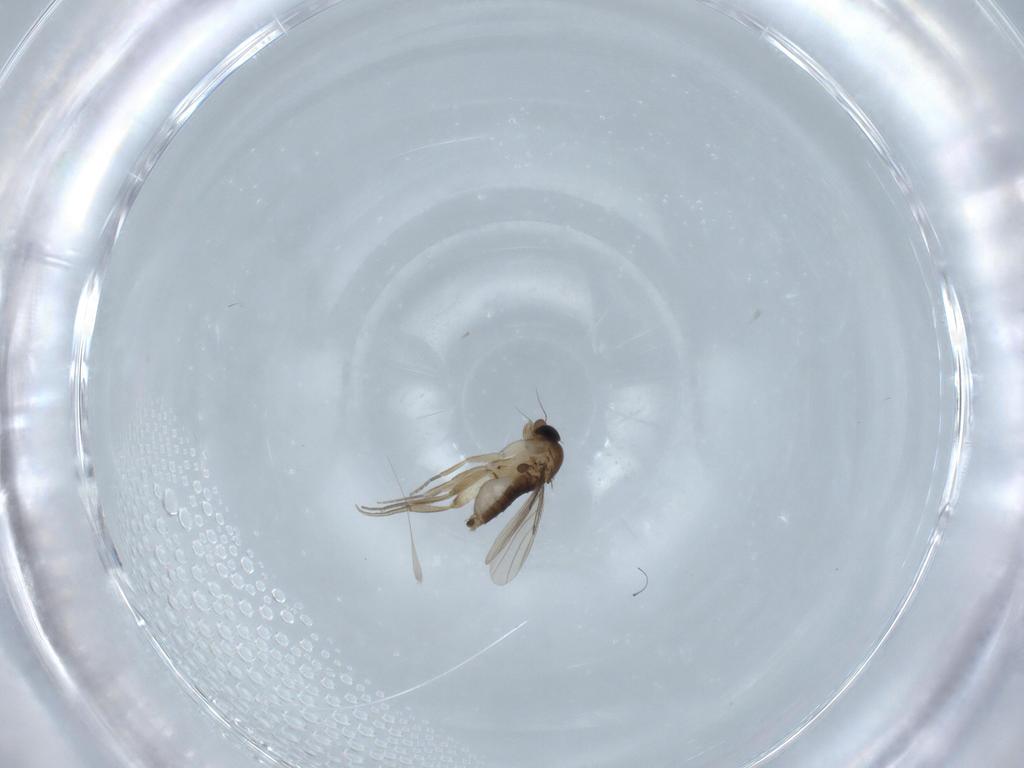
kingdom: Animalia
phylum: Arthropoda
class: Insecta
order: Diptera
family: Phoridae
